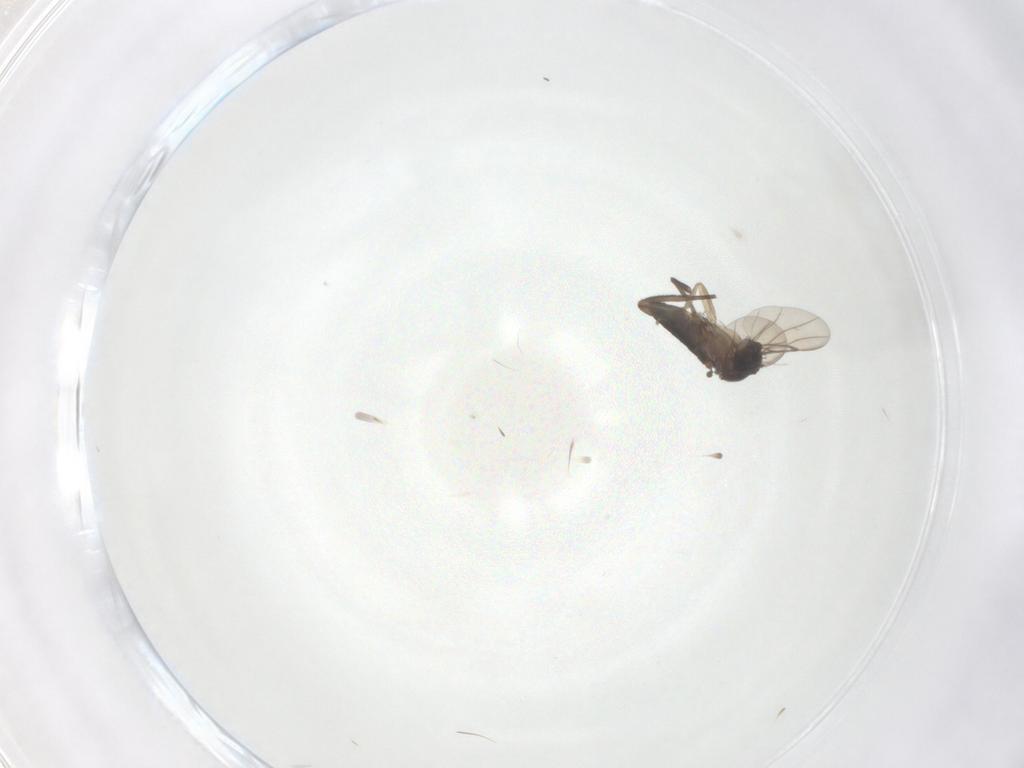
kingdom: Animalia
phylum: Arthropoda
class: Insecta
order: Diptera
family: Phoridae
